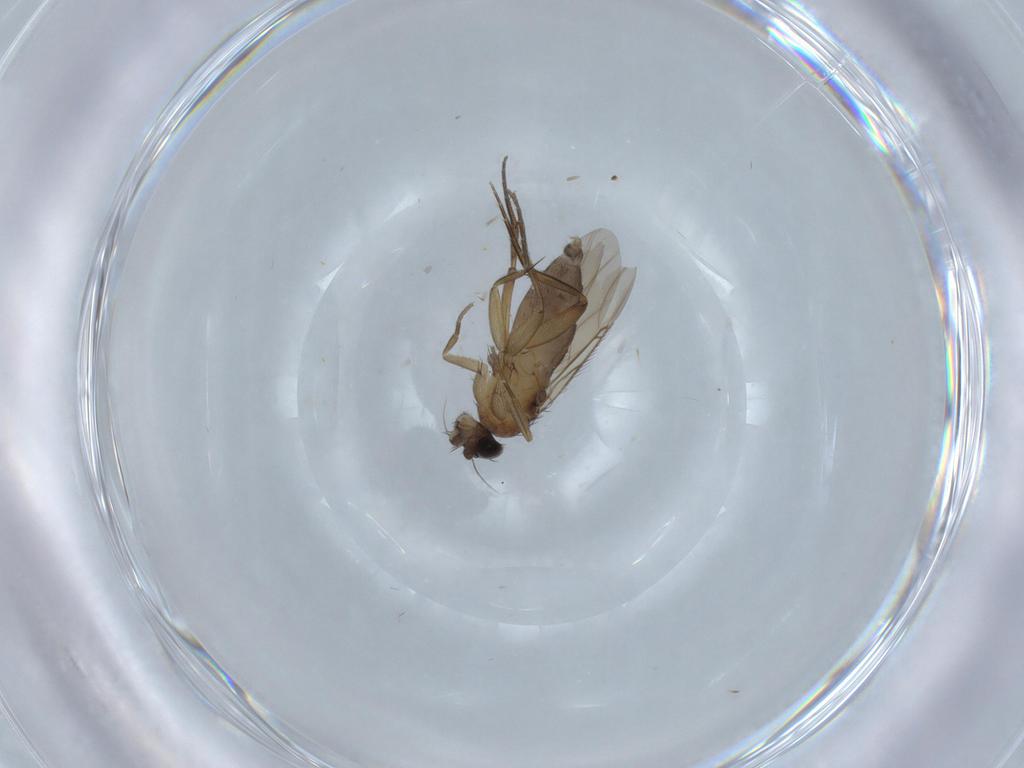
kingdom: Animalia
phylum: Arthropoda
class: Insecta
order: Diptera
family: Phoridae
